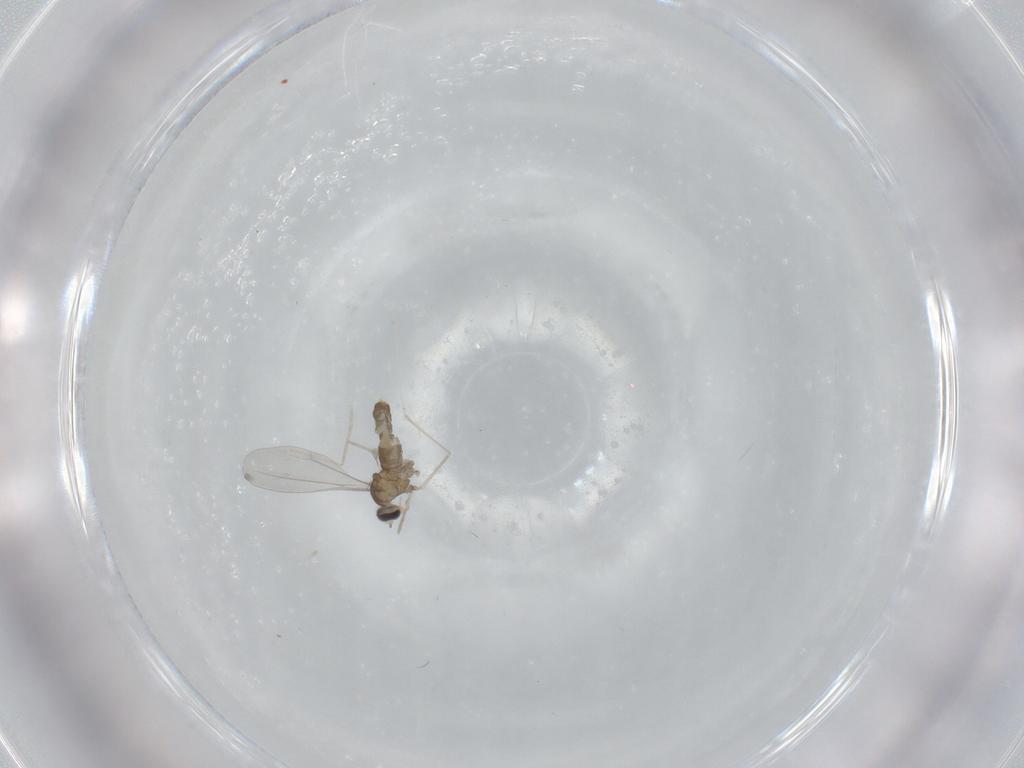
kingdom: Animalia
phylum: Arthropoda
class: Insecta
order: Diptera
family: Cecidomyiidae
